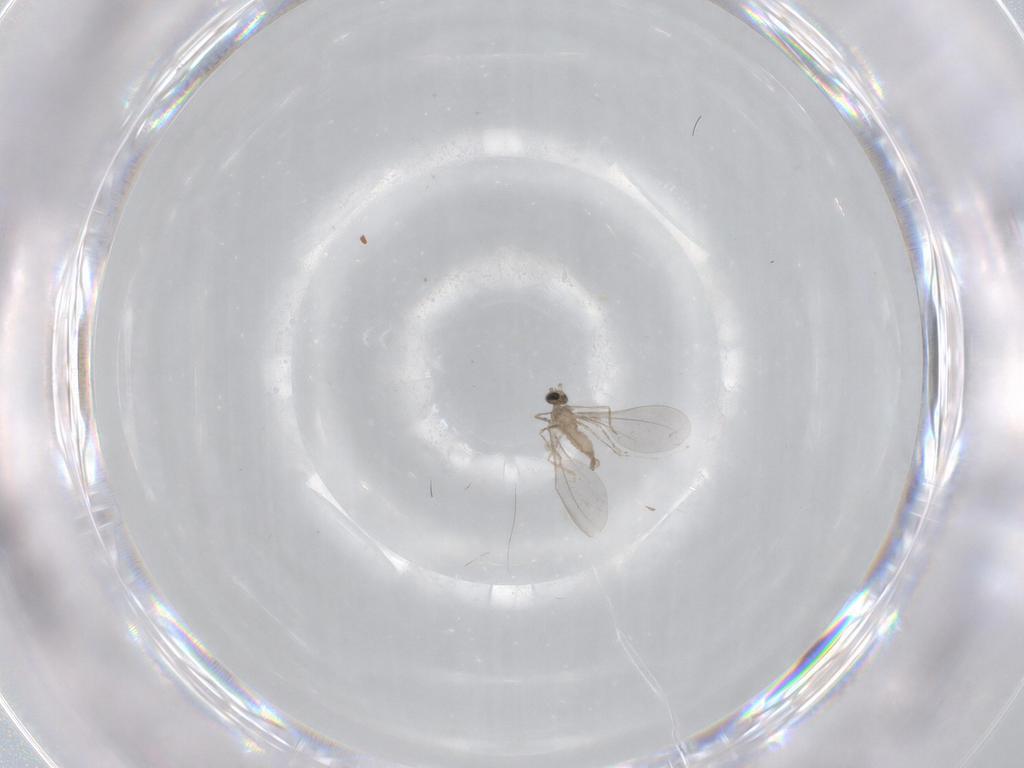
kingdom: Animalia
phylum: Arthropoda
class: Insecta
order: Diptera
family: Cecidomyiidae
